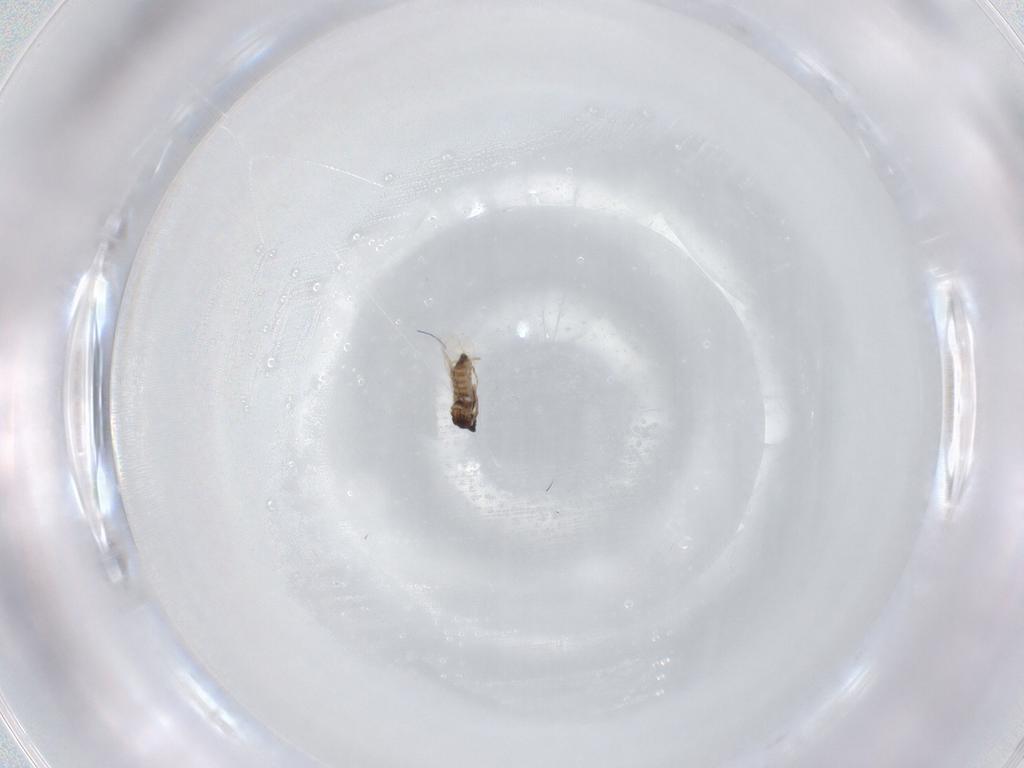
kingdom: Animalia
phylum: Arthropoda
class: Insecta
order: Diptera
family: Cecidomyiidae
